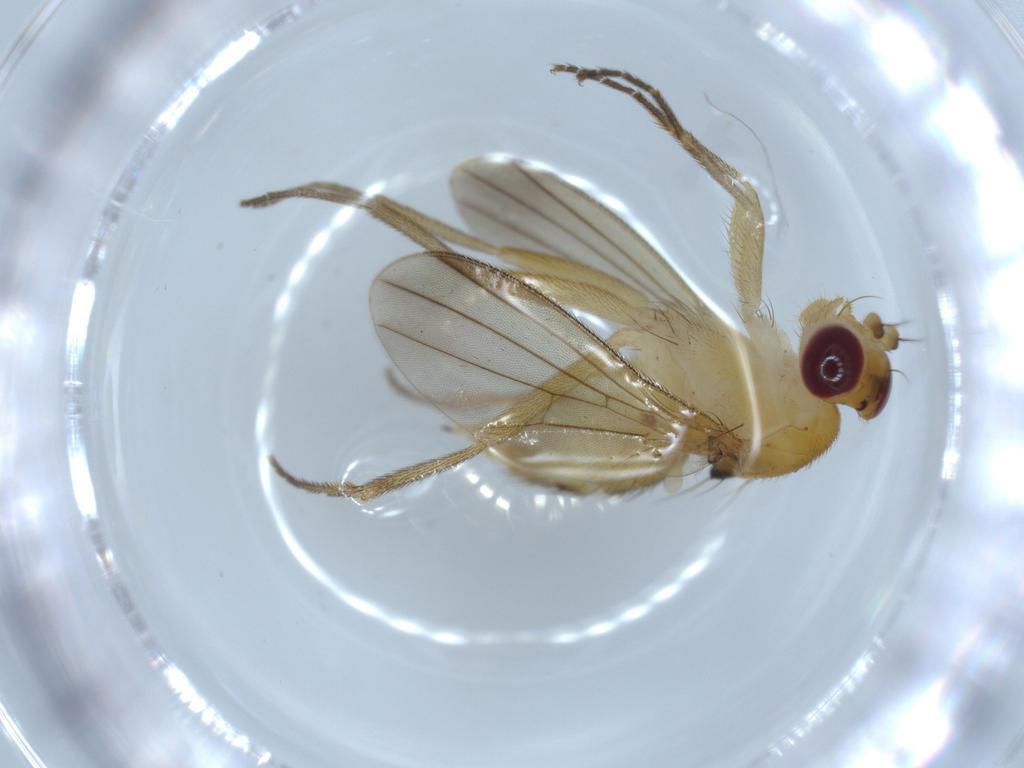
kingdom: Animalia
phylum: Arthropoda
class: Insecta
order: Diptera
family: Clusiidae
